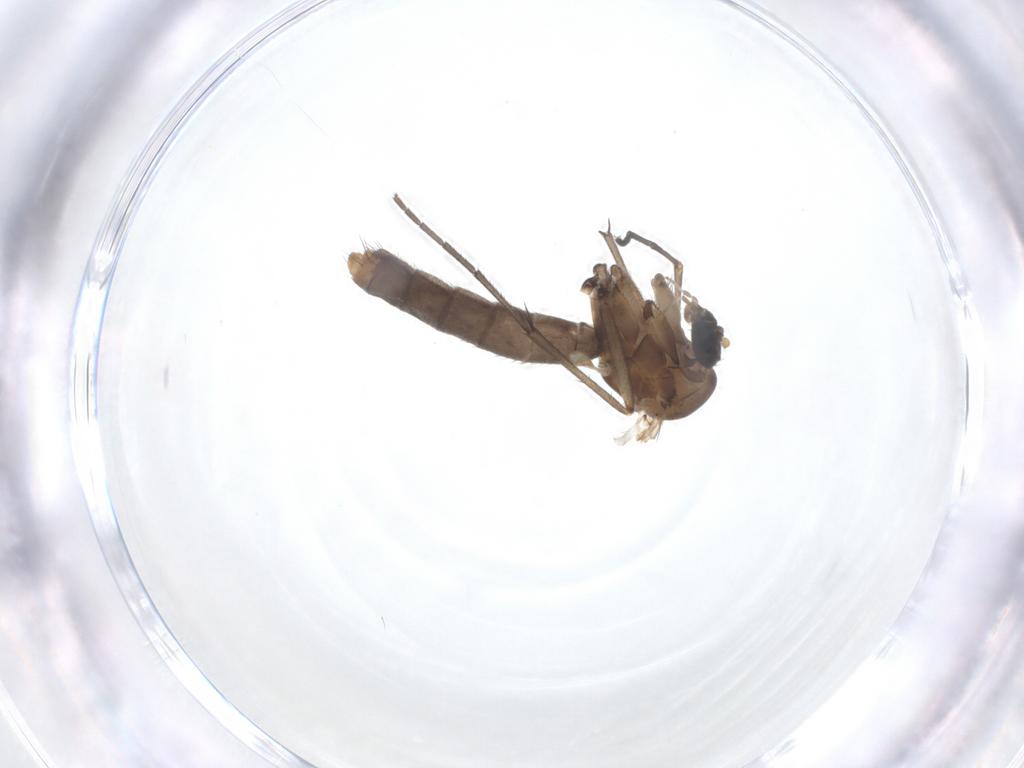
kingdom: Animalia
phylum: Arthropoda
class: Insecta
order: Diptera
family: Mycetophilidae
